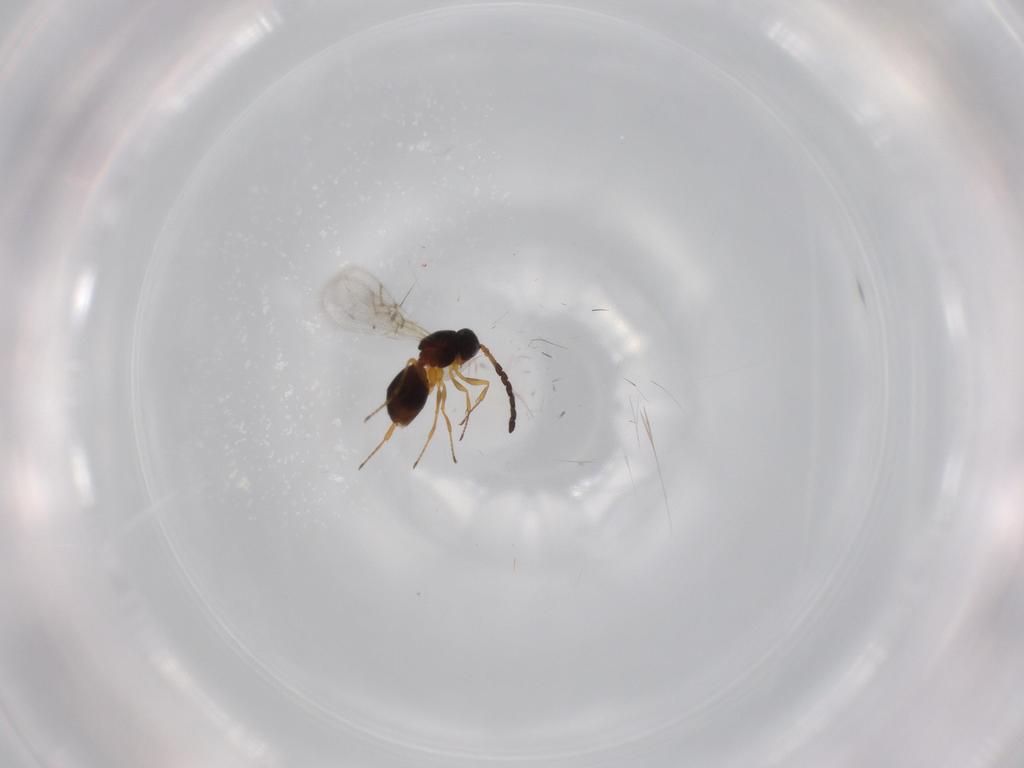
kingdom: Animalia
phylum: Arthropoda
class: Insecta
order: Hymenoptera
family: Figitidae
